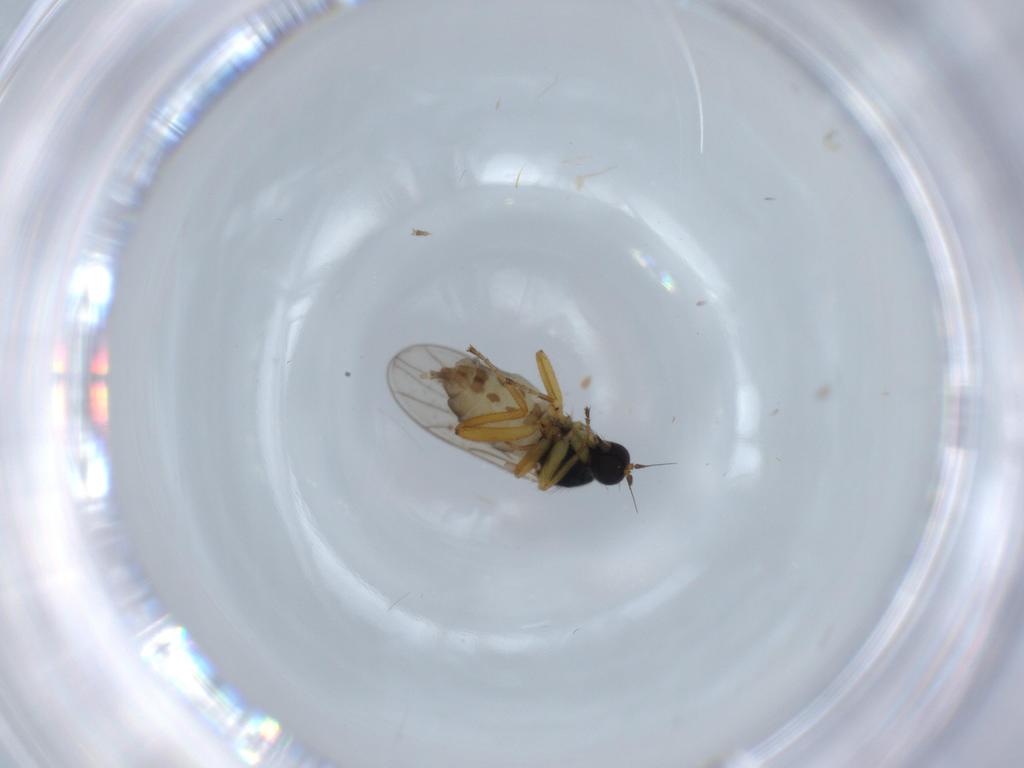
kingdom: Animalia
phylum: Arthropoda
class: Insecta
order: Diptera
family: Hybotidae
